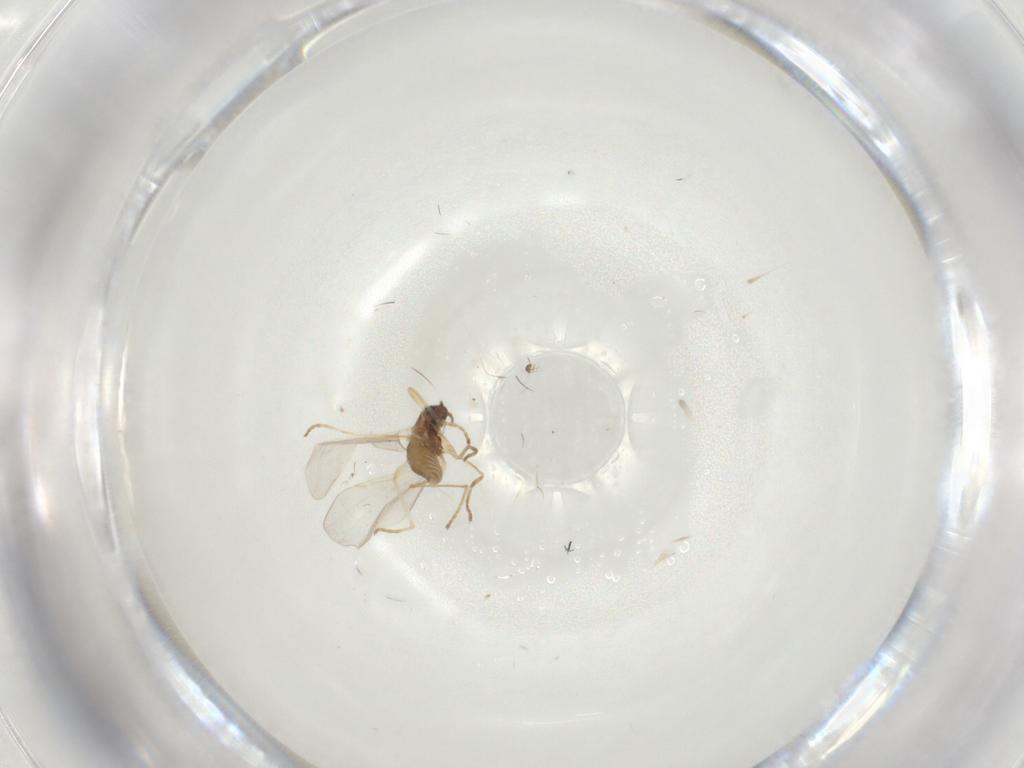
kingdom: Animalia
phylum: Arthropoda
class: Insecta
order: Diptera
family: Cecidomyiidae
